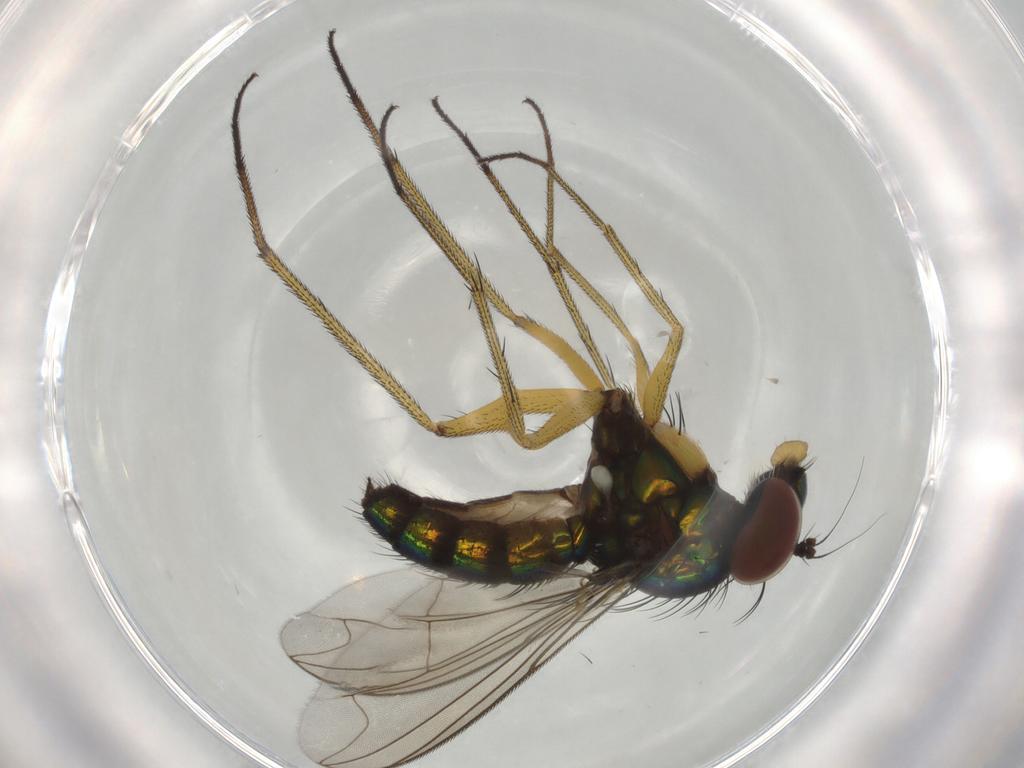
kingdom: Animalia
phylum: Arthropoda
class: Insecta
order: Diptera
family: Dolichopodidae
